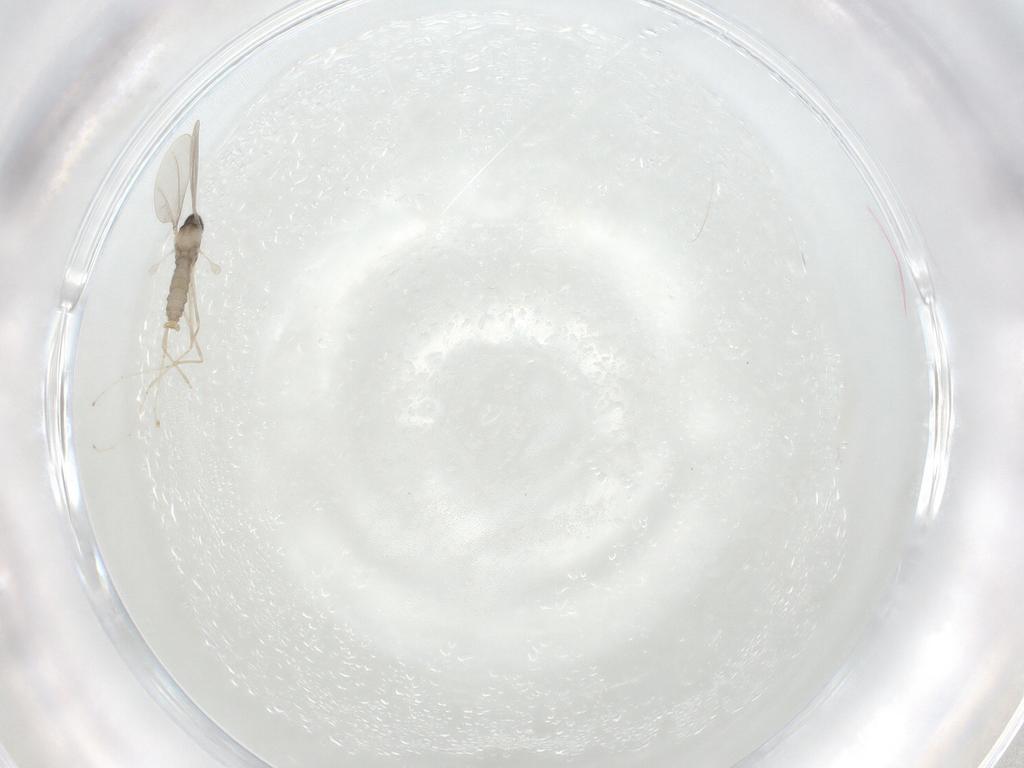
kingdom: Animalia
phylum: Arthropoda
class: Insecta
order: Diptera
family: Cecidomyiidae
